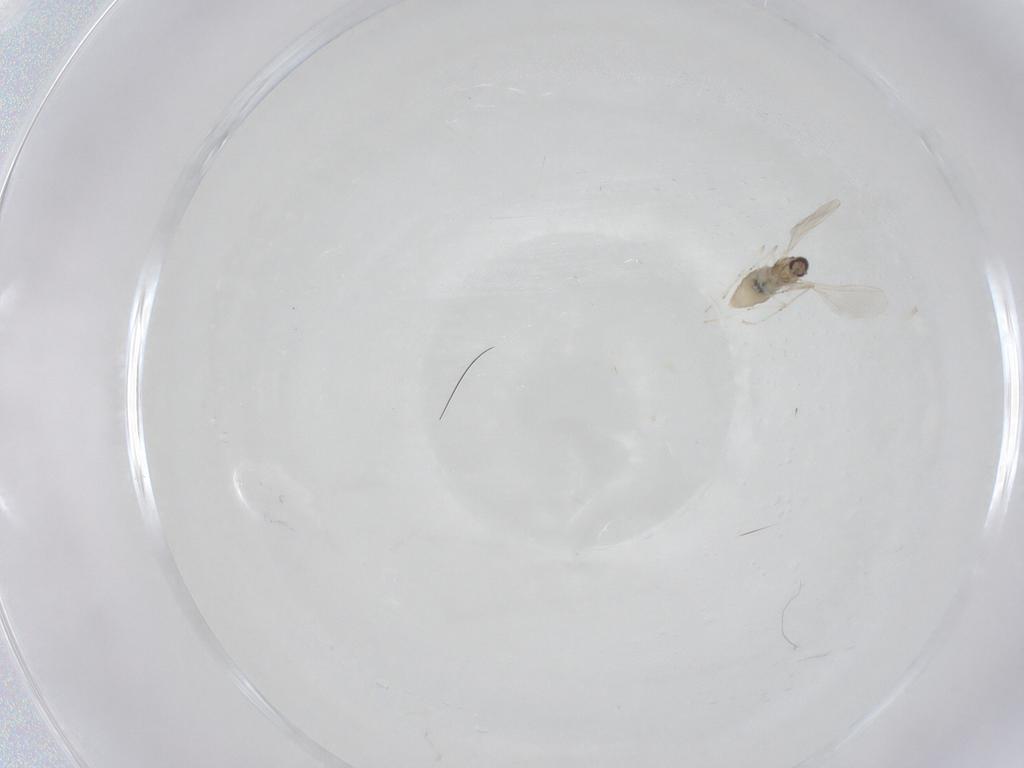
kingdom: Animalia
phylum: Arthropoda
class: Insecta
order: Diptera
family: Cecidomyiidae
